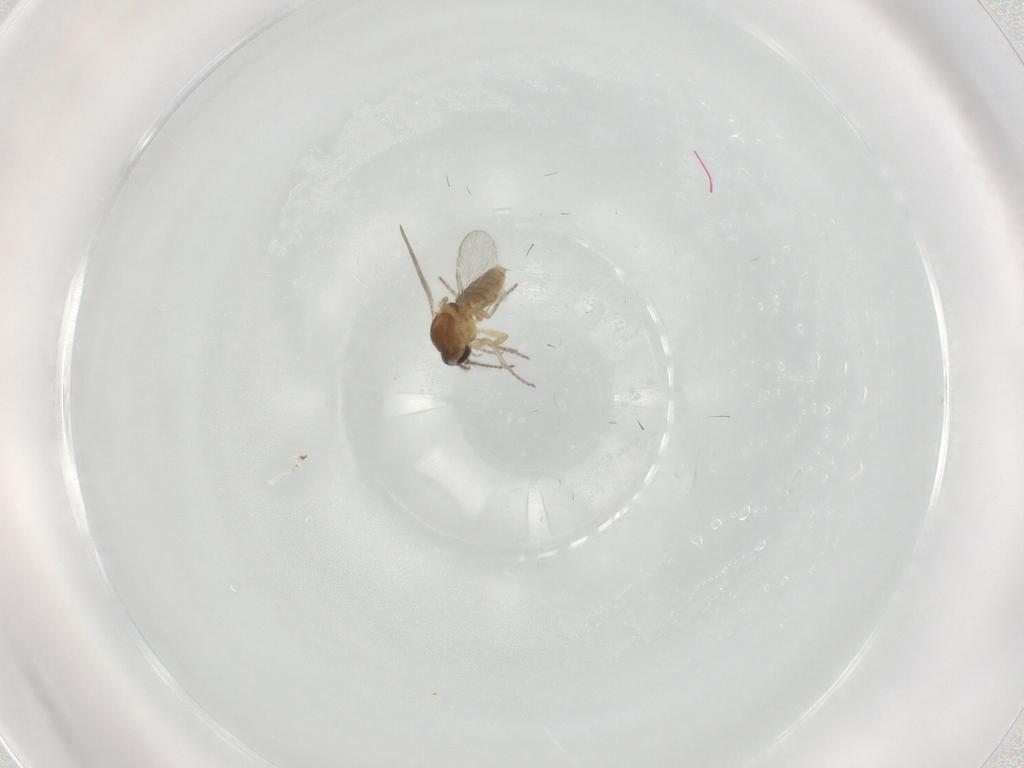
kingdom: Animalia
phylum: Arthropoda
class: Insecta
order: Diptera
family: Ceratopogonidae
